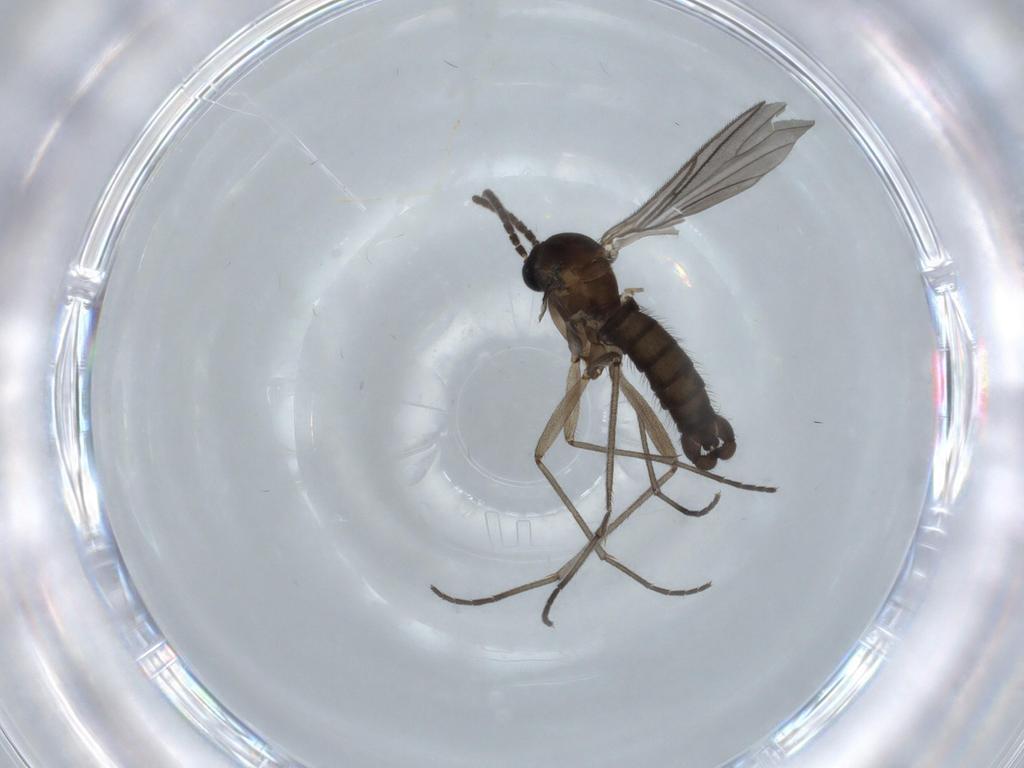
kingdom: Animalia
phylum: Arthropoda
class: Insecta
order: Diptera
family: Sciaridae
